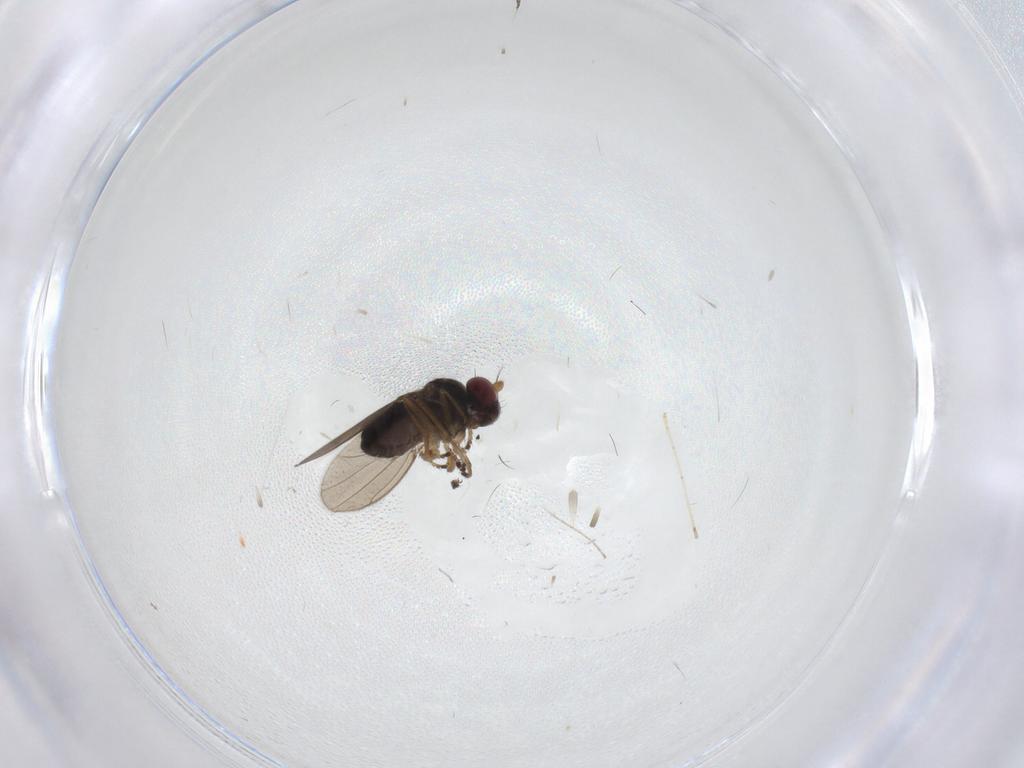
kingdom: Animalia
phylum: Arthropoda
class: Insecta
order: Diptera
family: Ephydridae
